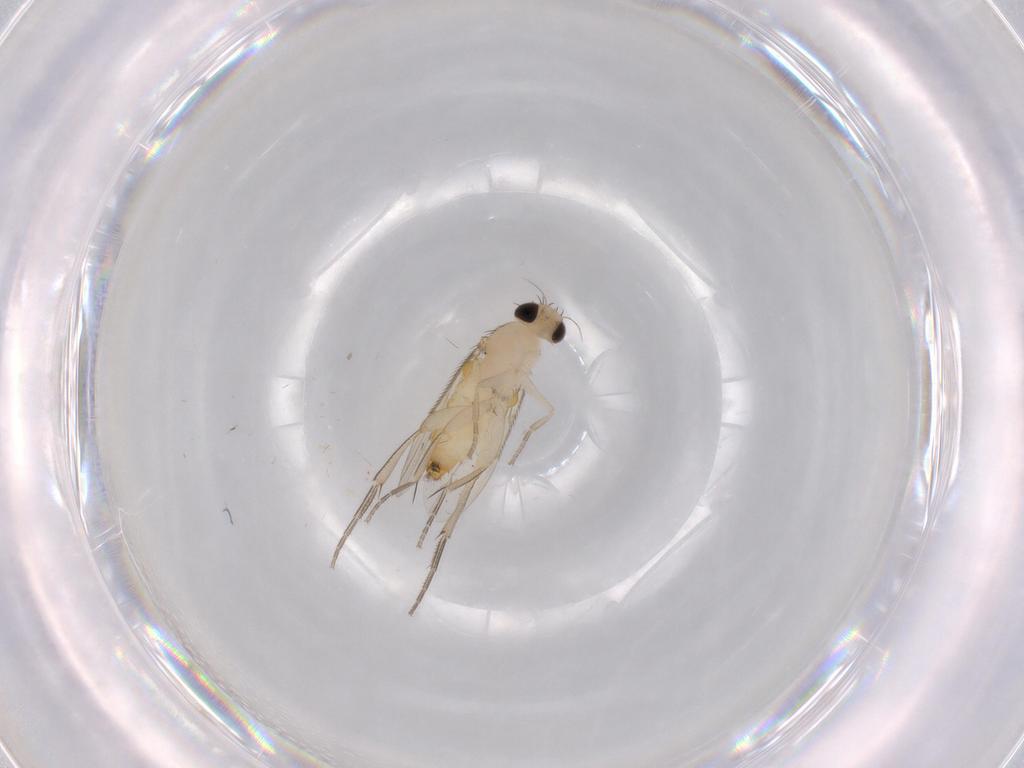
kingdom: Animalia
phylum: Arthropoda
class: Insecta
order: Diptera
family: Phoridae
